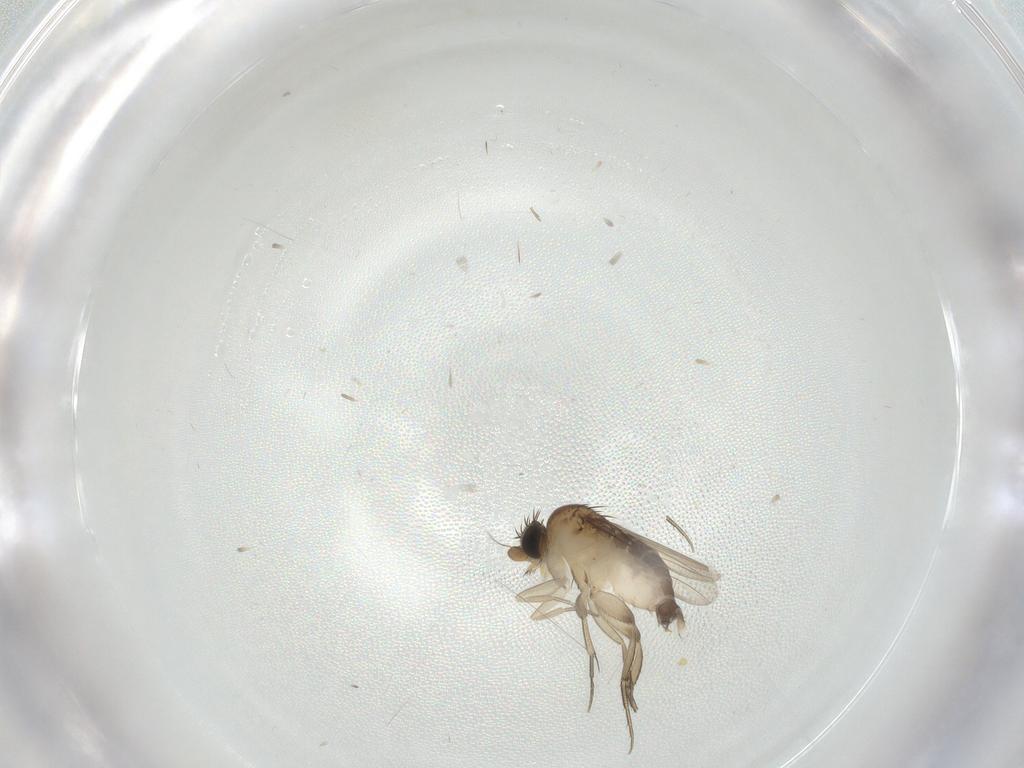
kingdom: Animalia
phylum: Arthropoda
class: Insecta
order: Diptera
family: Phoridae
